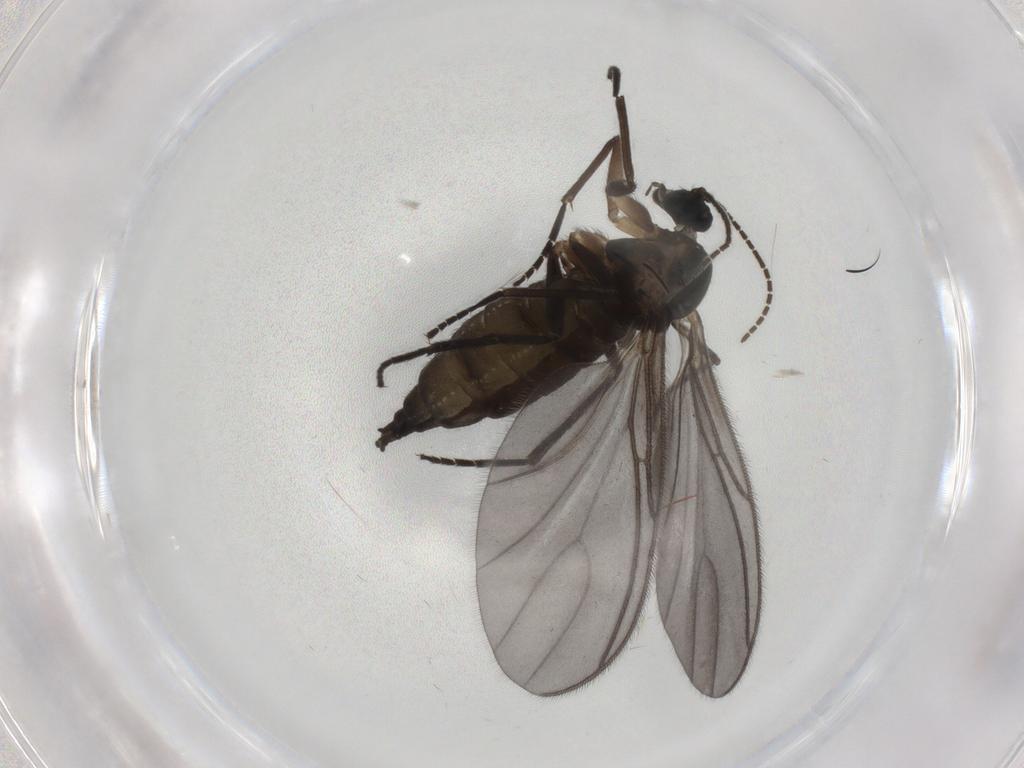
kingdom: Animalia
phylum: Arthropoda
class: Insecta
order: Diptera
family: Sciaridae
